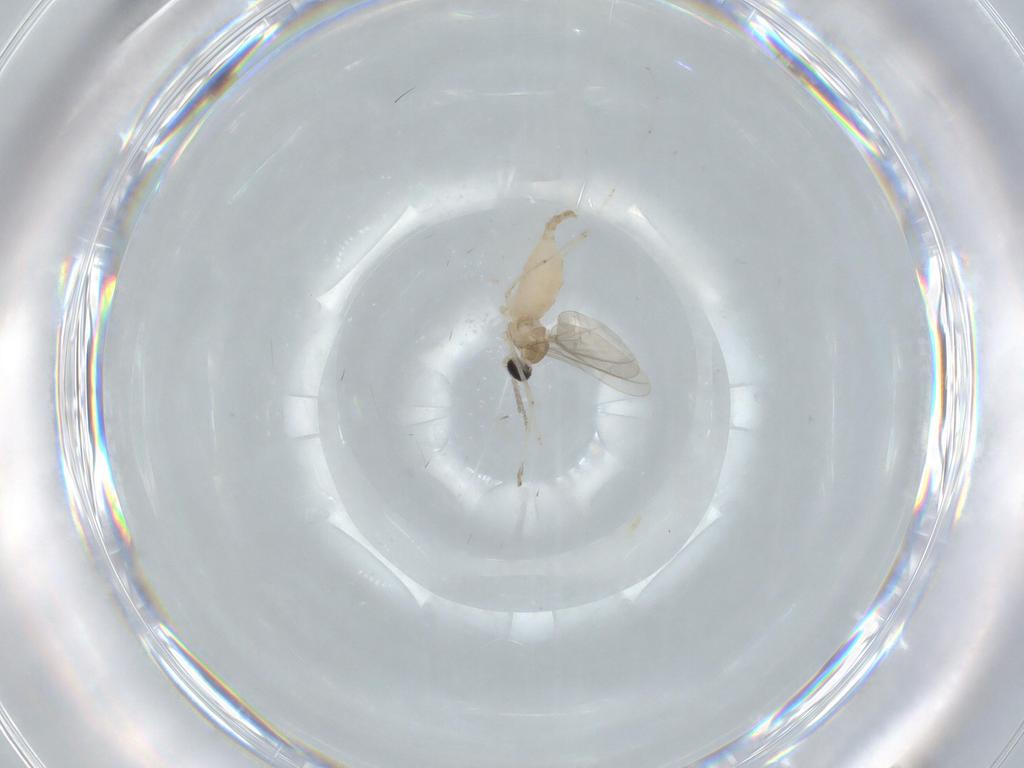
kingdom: Animalia
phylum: Arthropoda
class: Insecta
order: Diptera
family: Cecidomyiidae
